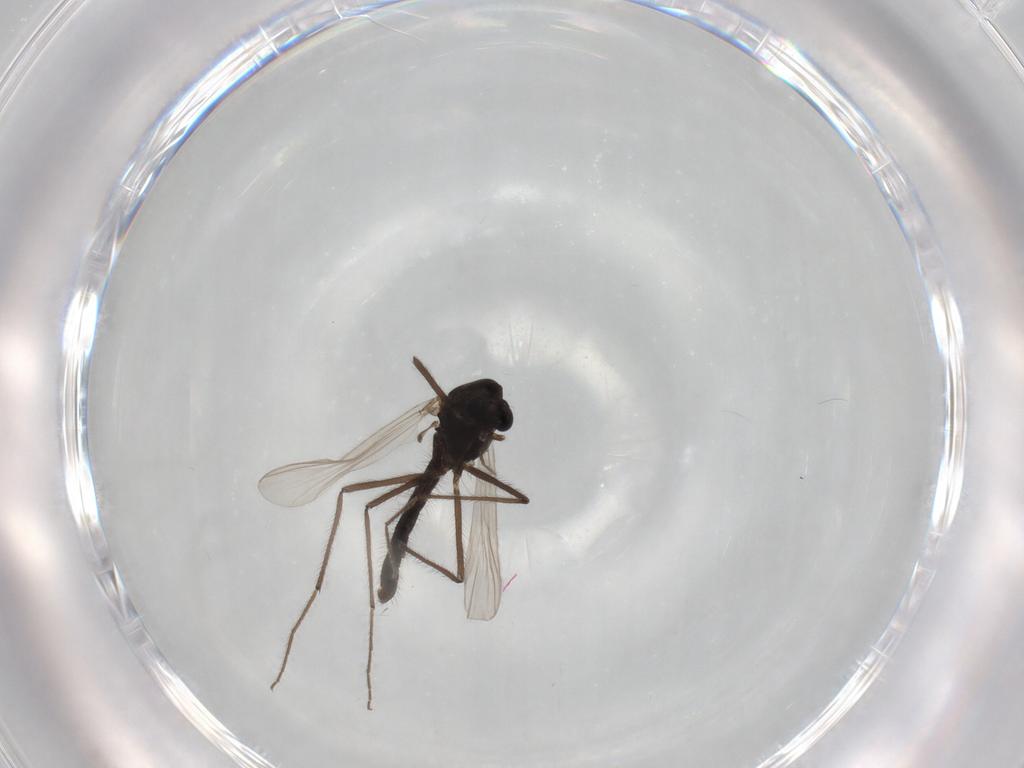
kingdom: Animalia
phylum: Arthropoda
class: Insecta
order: Diptera
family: Chironomidae
